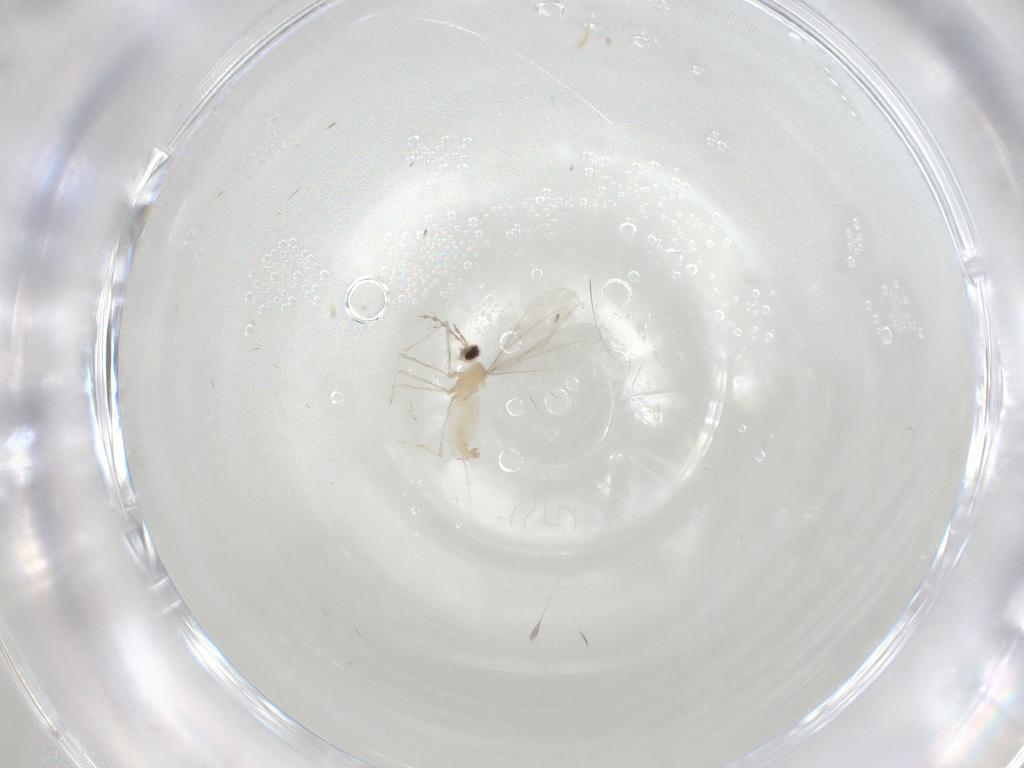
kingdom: Animalia
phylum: Arthropoda
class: Insecta
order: Diptera
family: Cecidomyiidae
